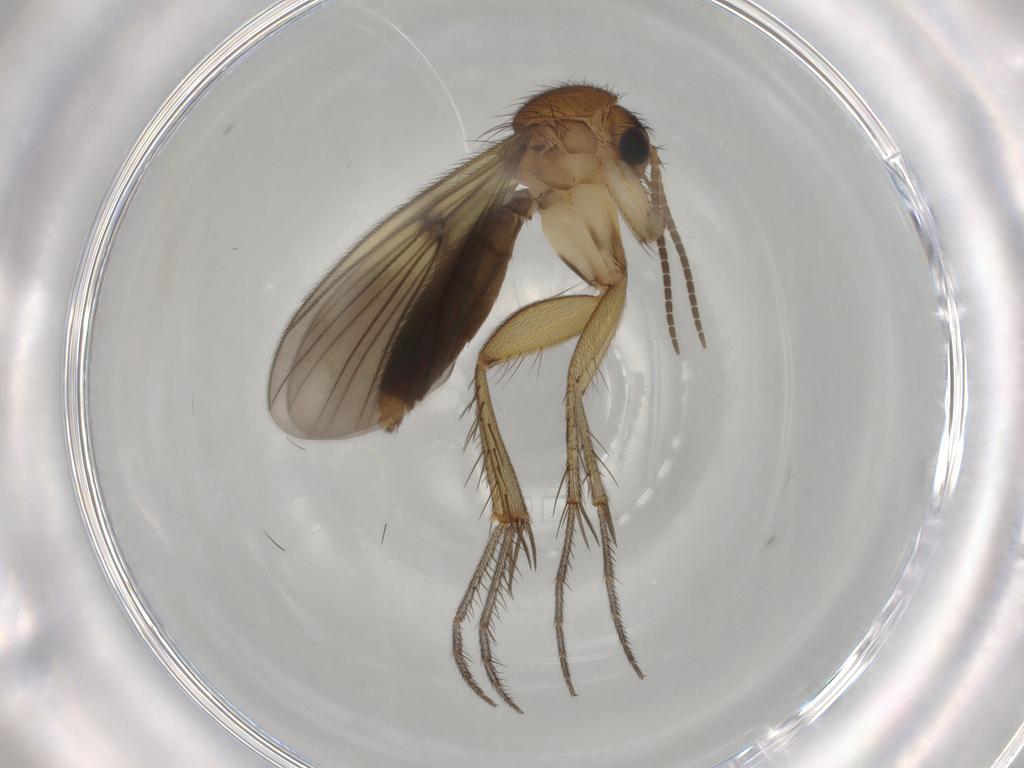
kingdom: Animalia
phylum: Arthropoda
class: Insecta
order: Diptera
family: Mycetophilidae
